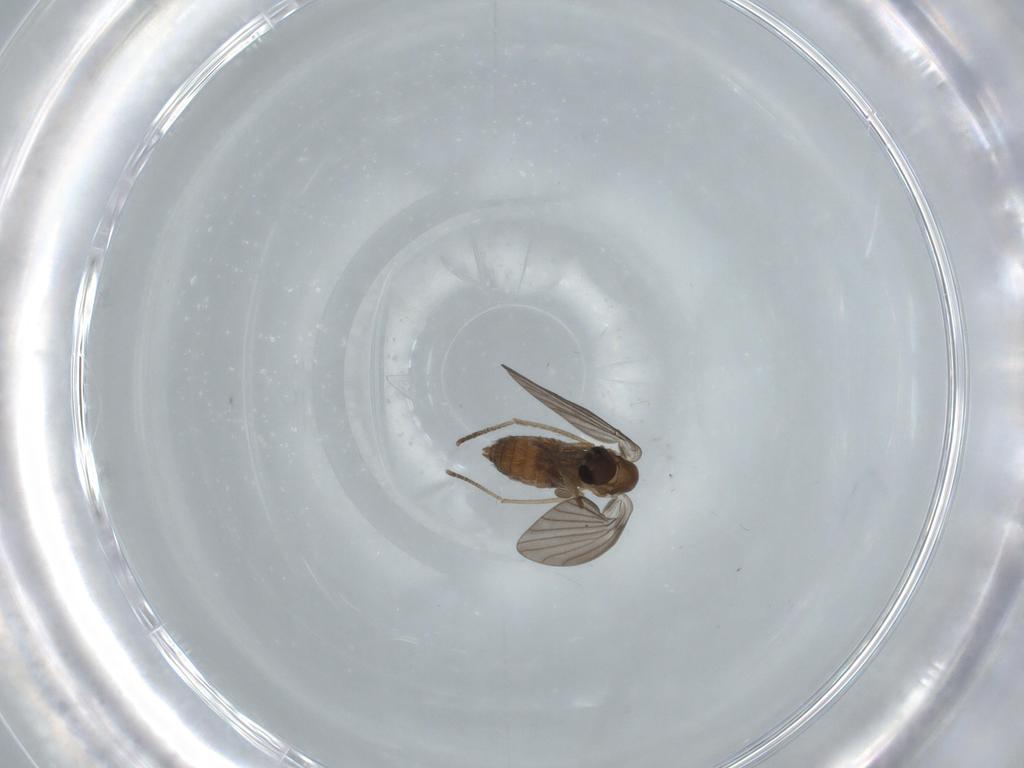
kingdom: Animalia
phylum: Arthropoda
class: Insecta
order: Diptera
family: Psychodidae
